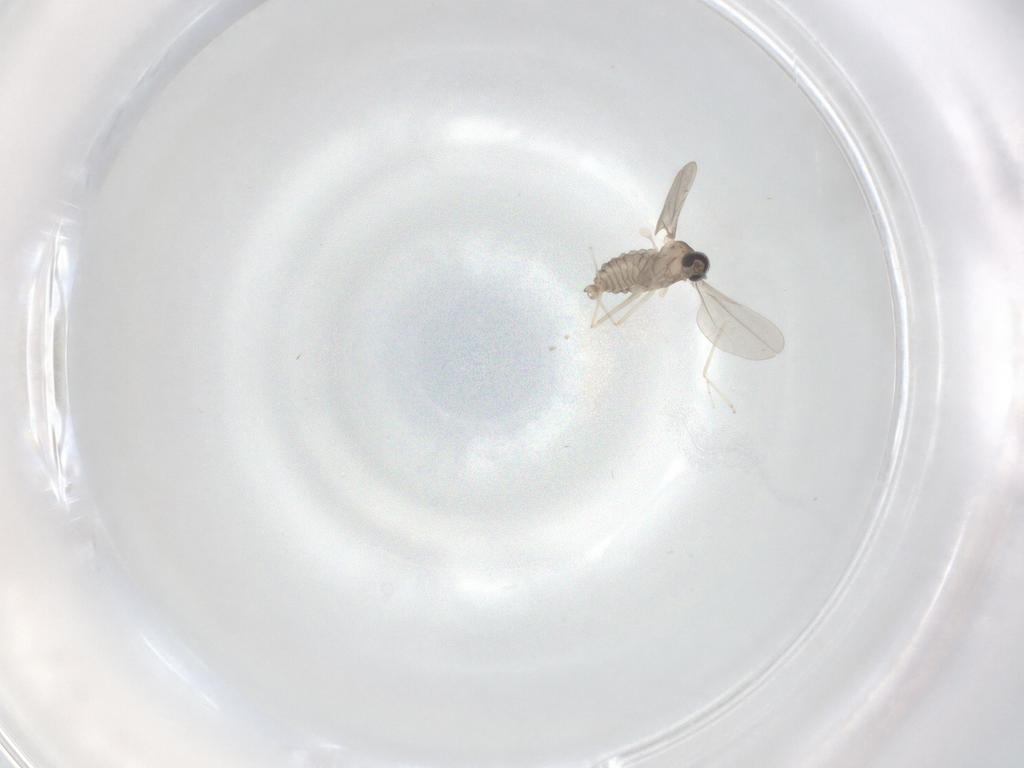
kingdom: Animalia
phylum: Arthropoda
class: Insecta
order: Diptera
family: Cecidomyiidae
